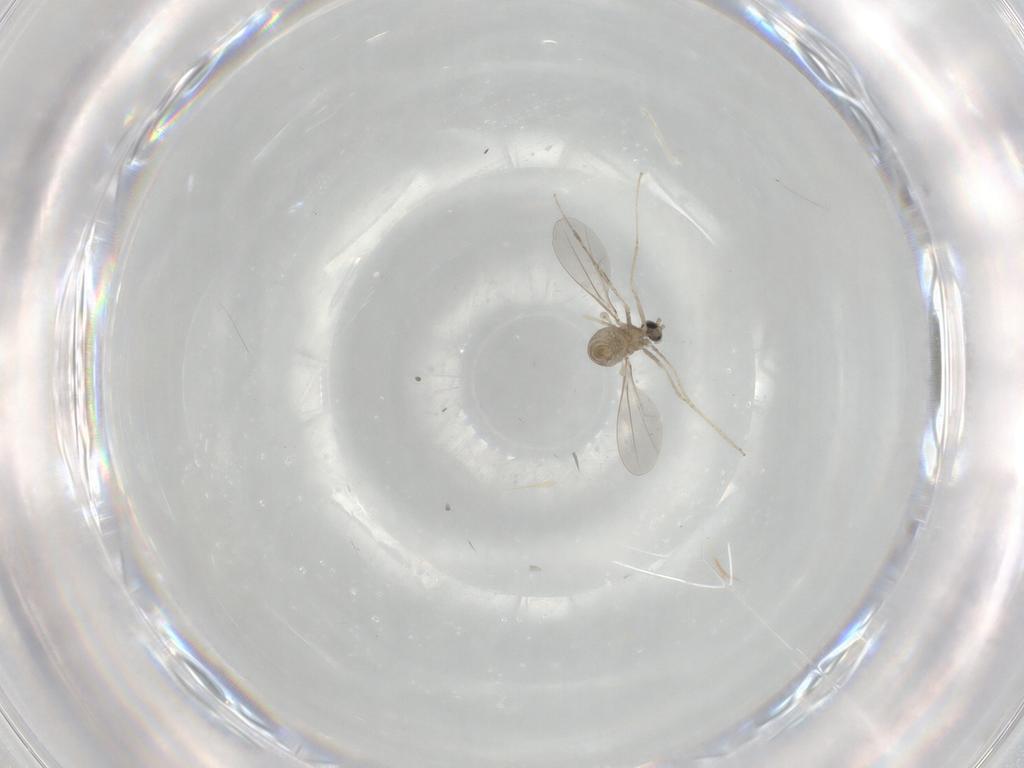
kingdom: Animalia
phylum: Arthropoda
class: Insecta
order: Diptera
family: Cecidomyiidae
